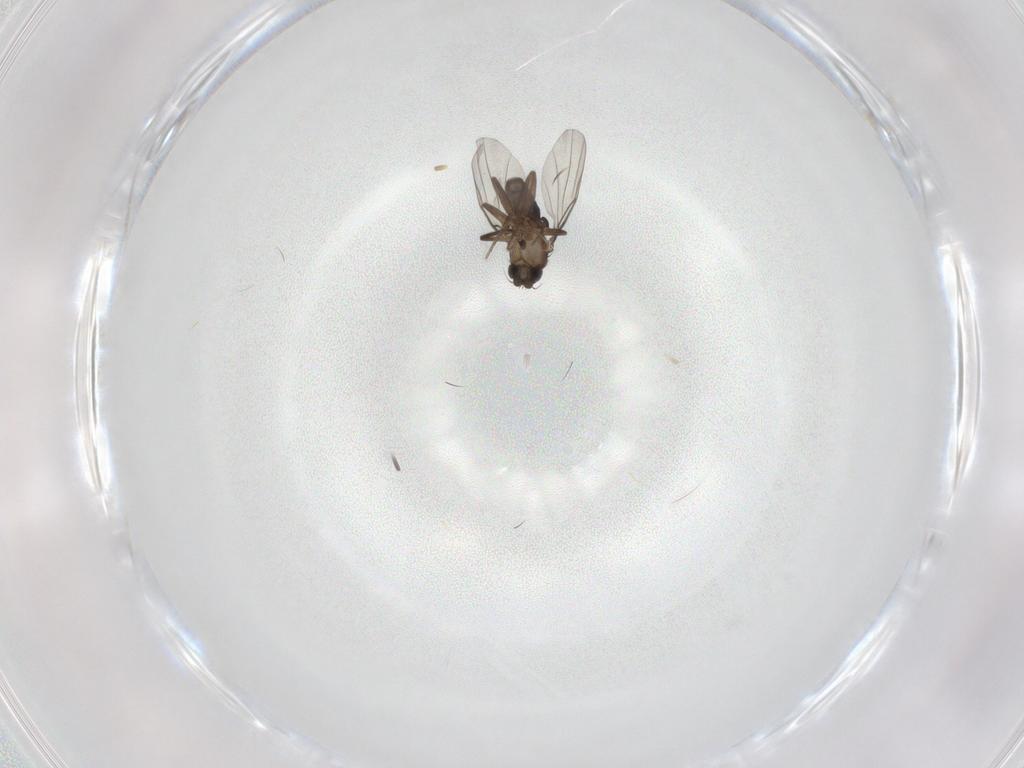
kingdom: Animalia
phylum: Arthropoda
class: Insecta
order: Diptera
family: Phoridae
